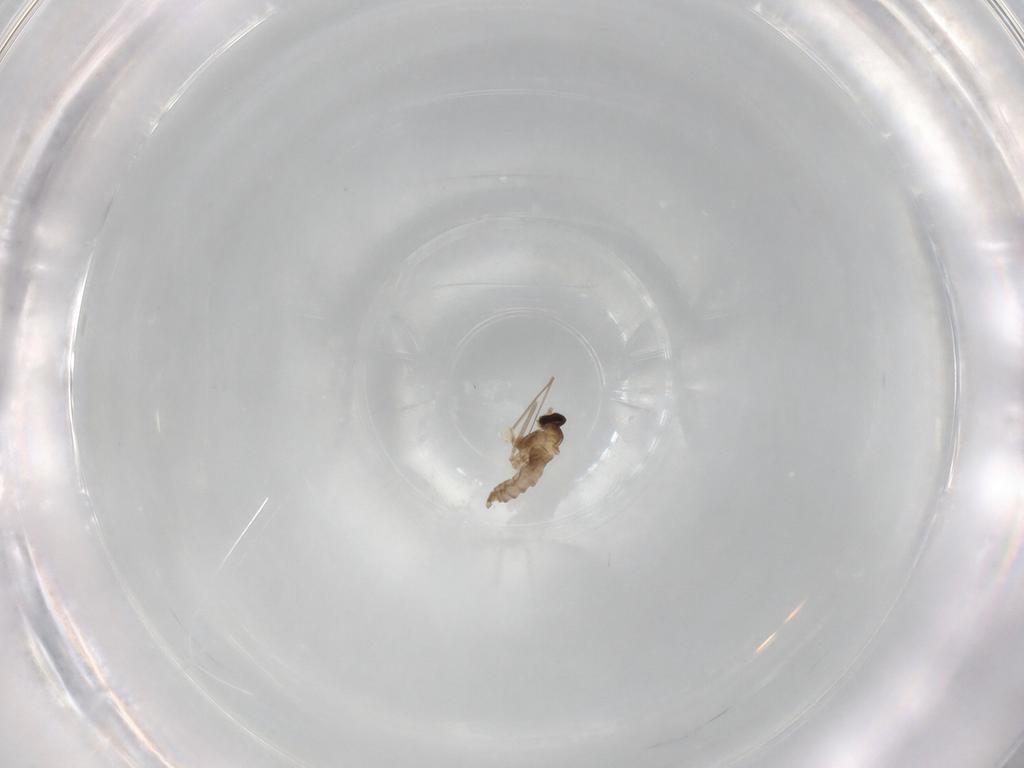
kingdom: Animalia
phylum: Arthropoda
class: Insecta
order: Diptera
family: Cecidomyiidae
